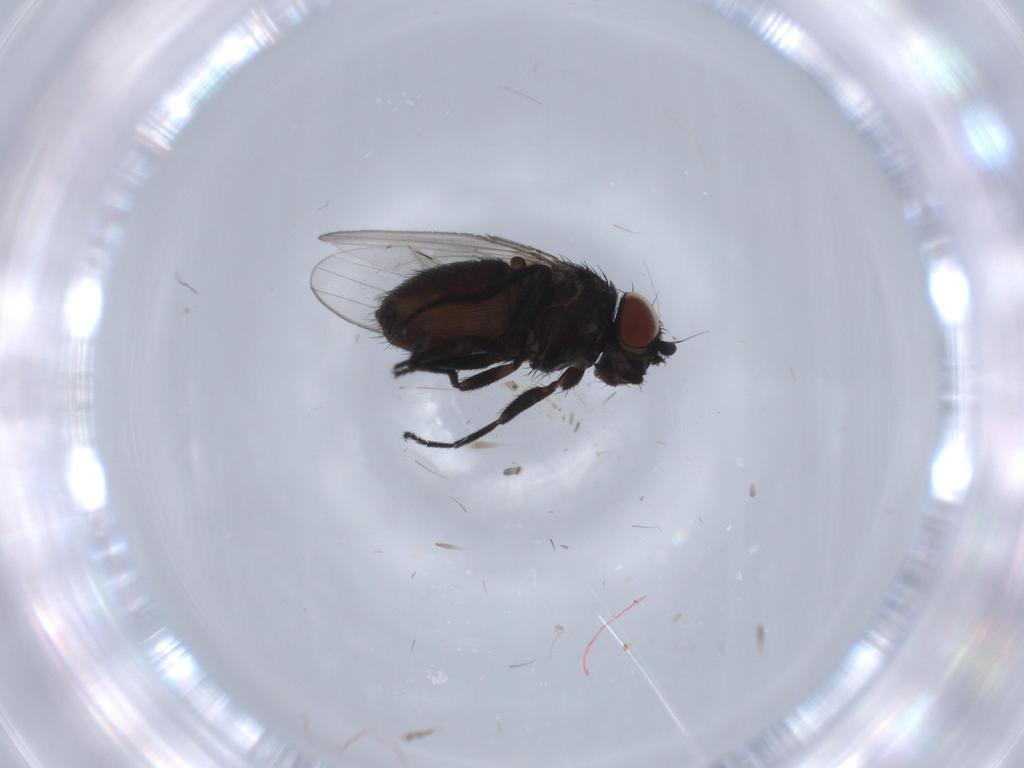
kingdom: Animalia
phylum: Arthropoda
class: Insecta
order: Diptera
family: Milichiidae
